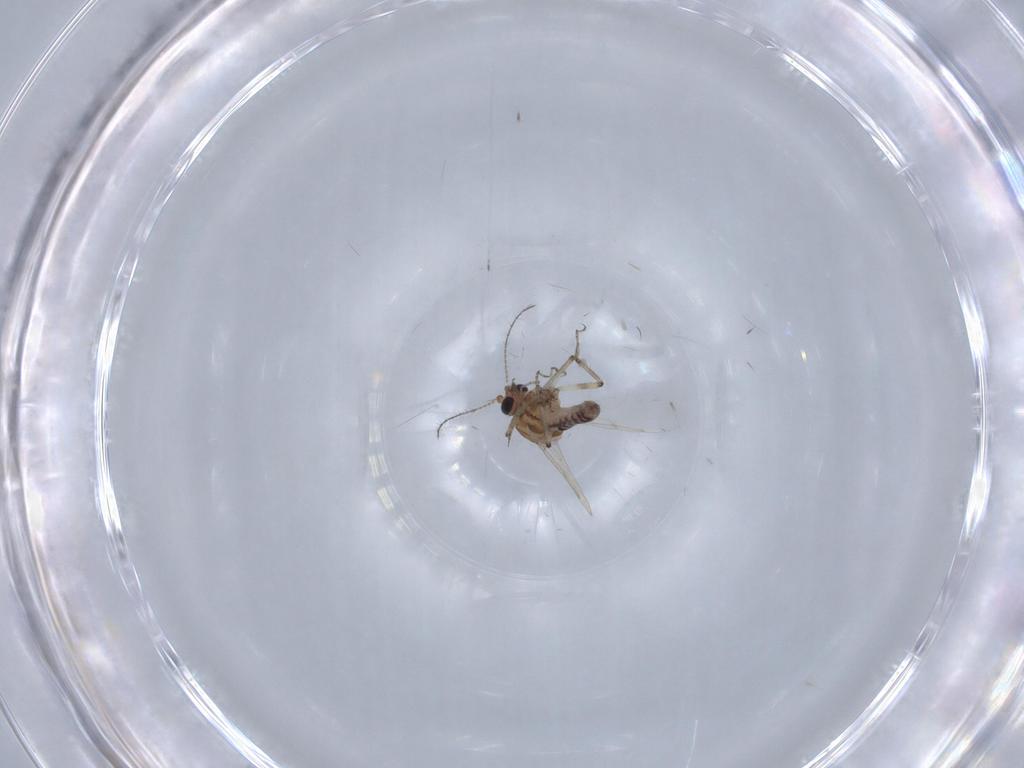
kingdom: Animalia
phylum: Arthropoda
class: Insecta
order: Diptera
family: Ceratopogonidae
